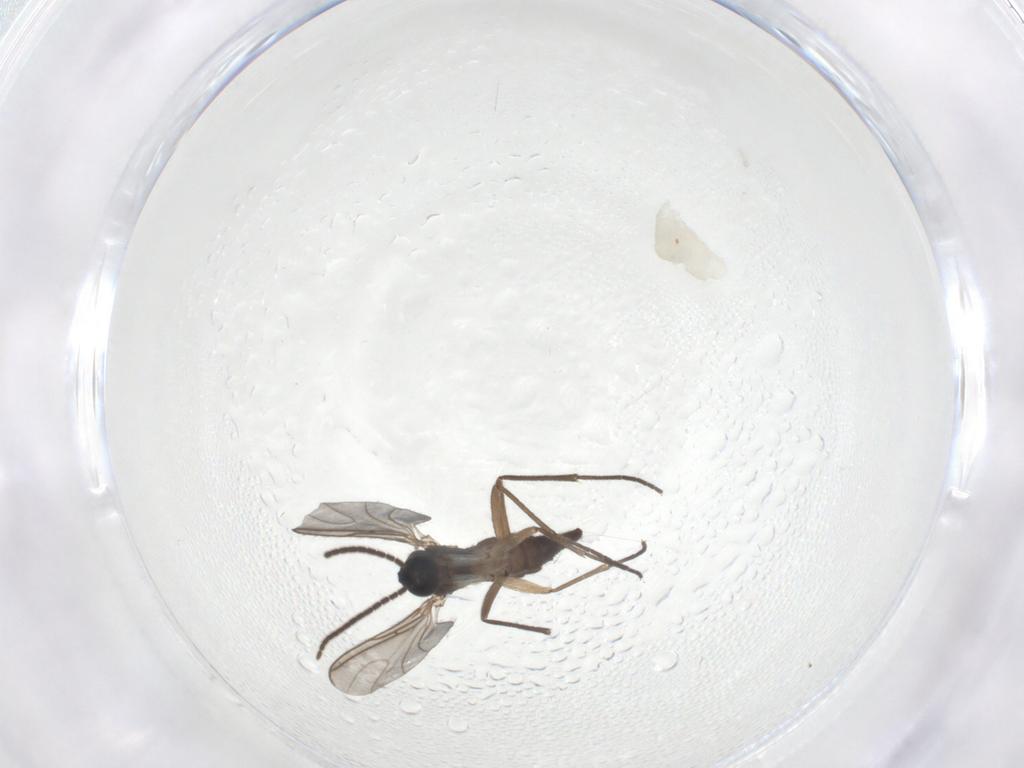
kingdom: Animalia
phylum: Arthropoda
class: Insecta
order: Diptera
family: Sciaridae
